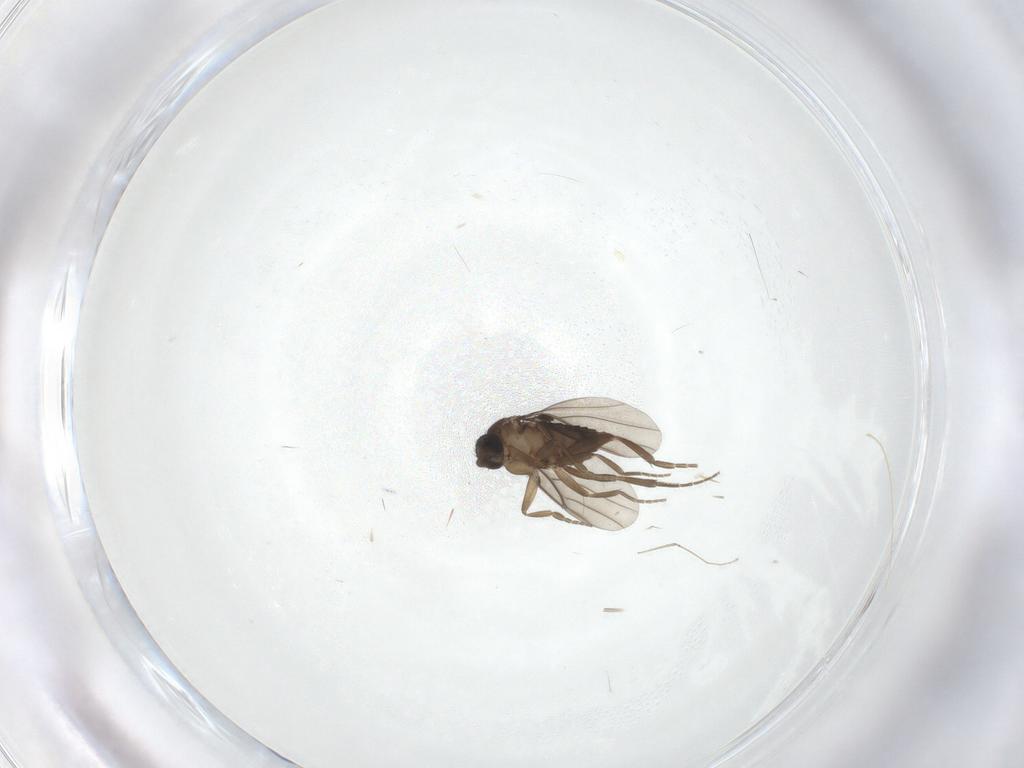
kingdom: Animalia
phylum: Arthropoda
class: Insecta
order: Diptera
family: Cecidomyiidae
